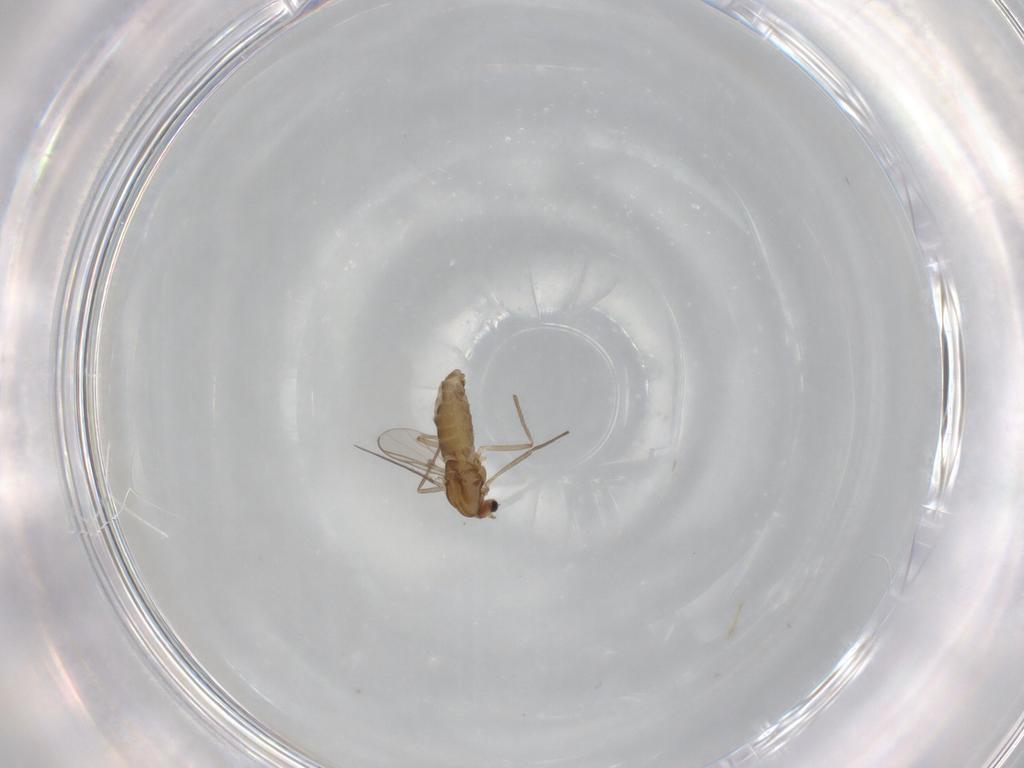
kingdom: Animalia
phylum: Arthropoda
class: Insecta
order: Diptera
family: Chironomidae
